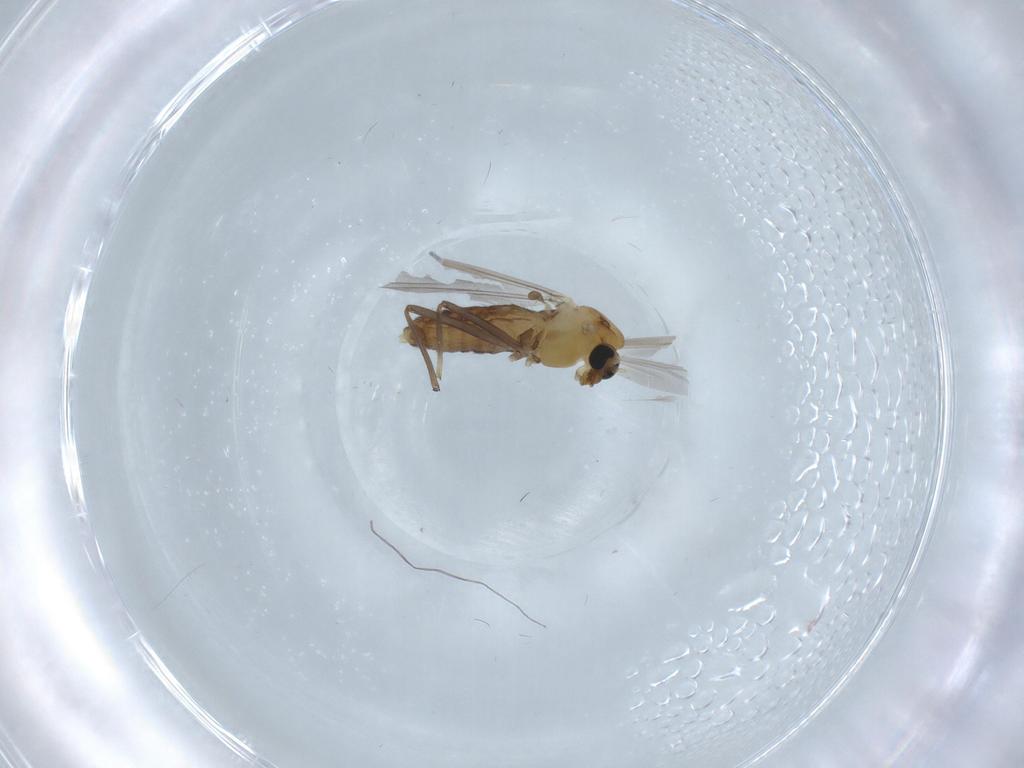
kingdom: Animalia
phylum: Arthropoda
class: Insecta
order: Diptera
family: Chironomidae
